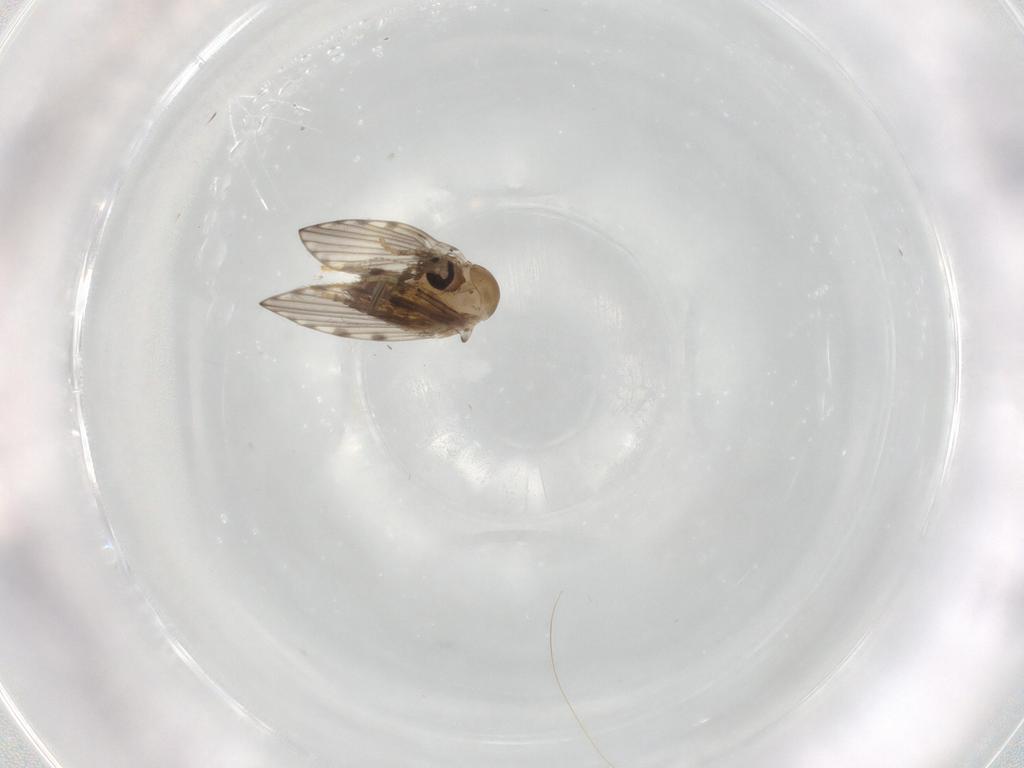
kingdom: Animalia
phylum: Arthropoda
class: Insecta
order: Diptera
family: Psychodidae
